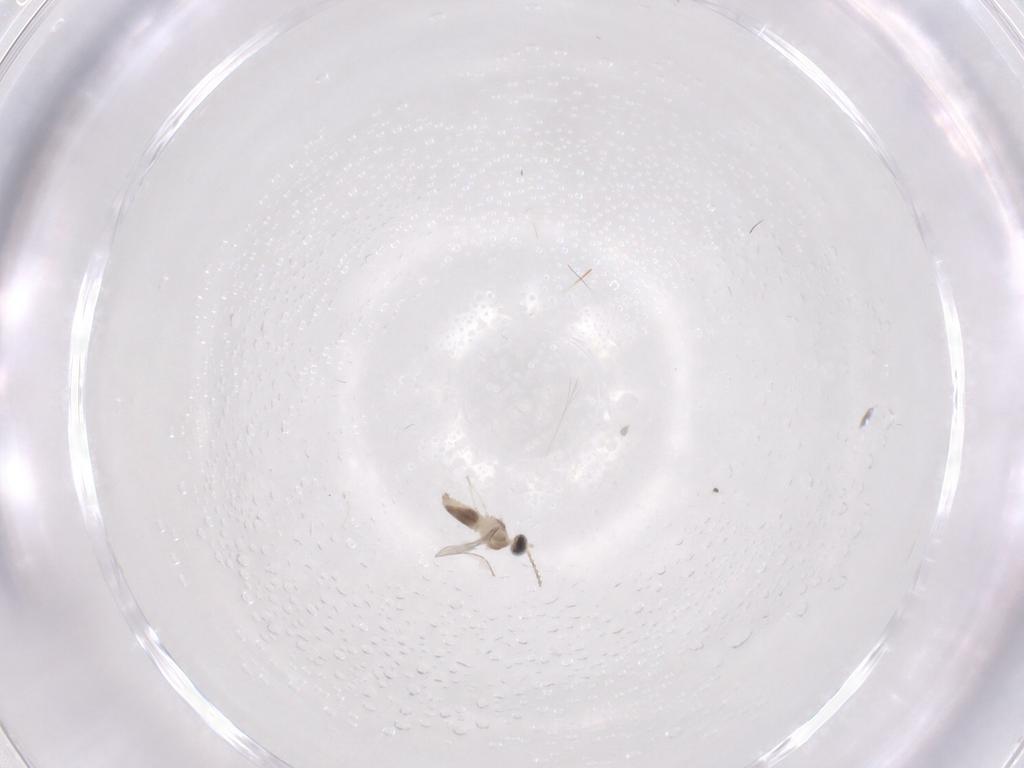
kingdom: Animalia
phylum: Arthropoda
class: Insecta
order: Diptera
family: Cecidomyiidae
